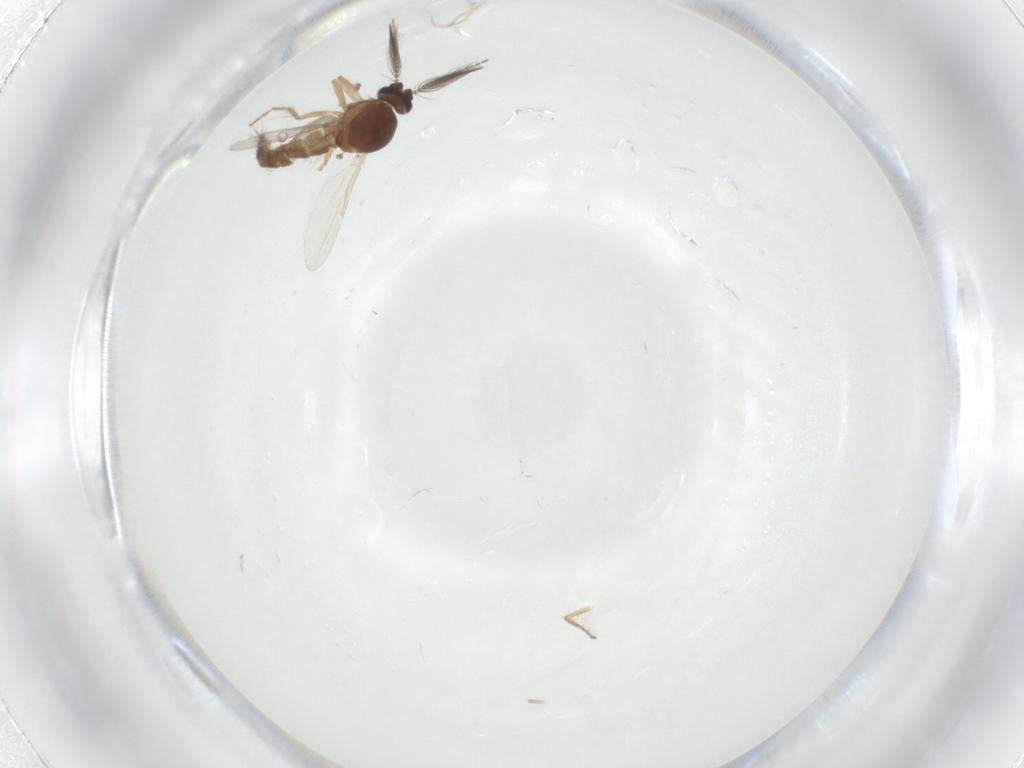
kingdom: Animalia
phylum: Arthropoda
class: Insecta
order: Diptera
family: Ceratopogonidae
